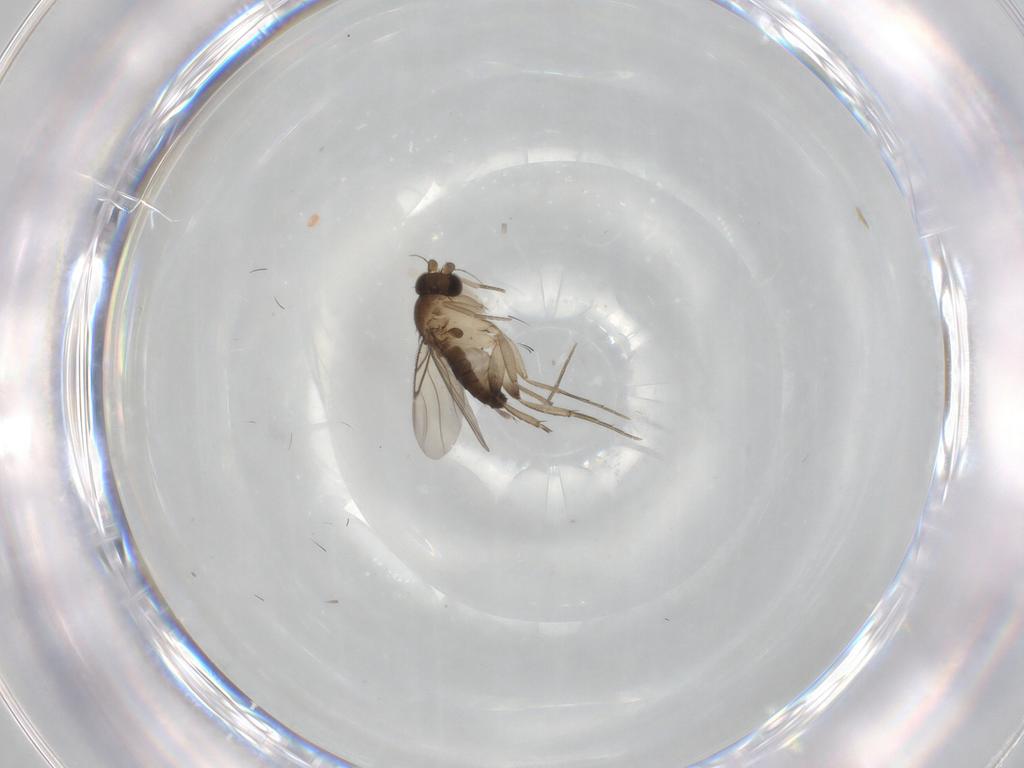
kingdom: Animalia
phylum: Arthropoda
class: Insecta
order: Diptera
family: Phoridae
